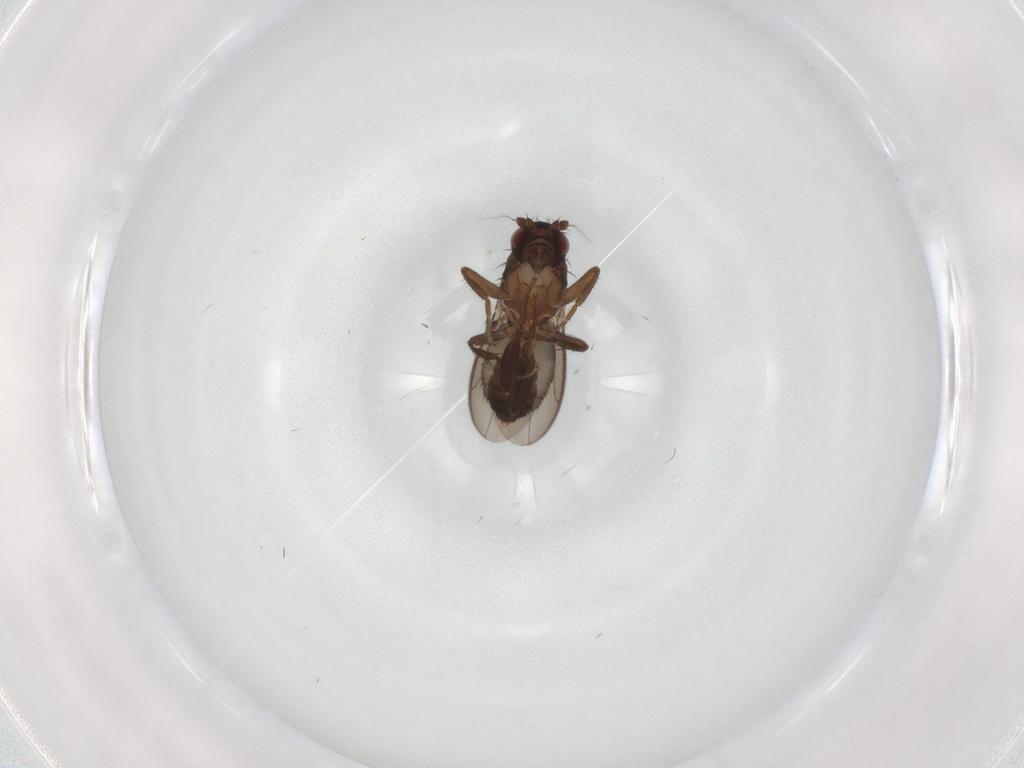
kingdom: Animalia
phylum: Arthropoda
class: Insecta
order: Diptera
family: Sphaeroceridae
